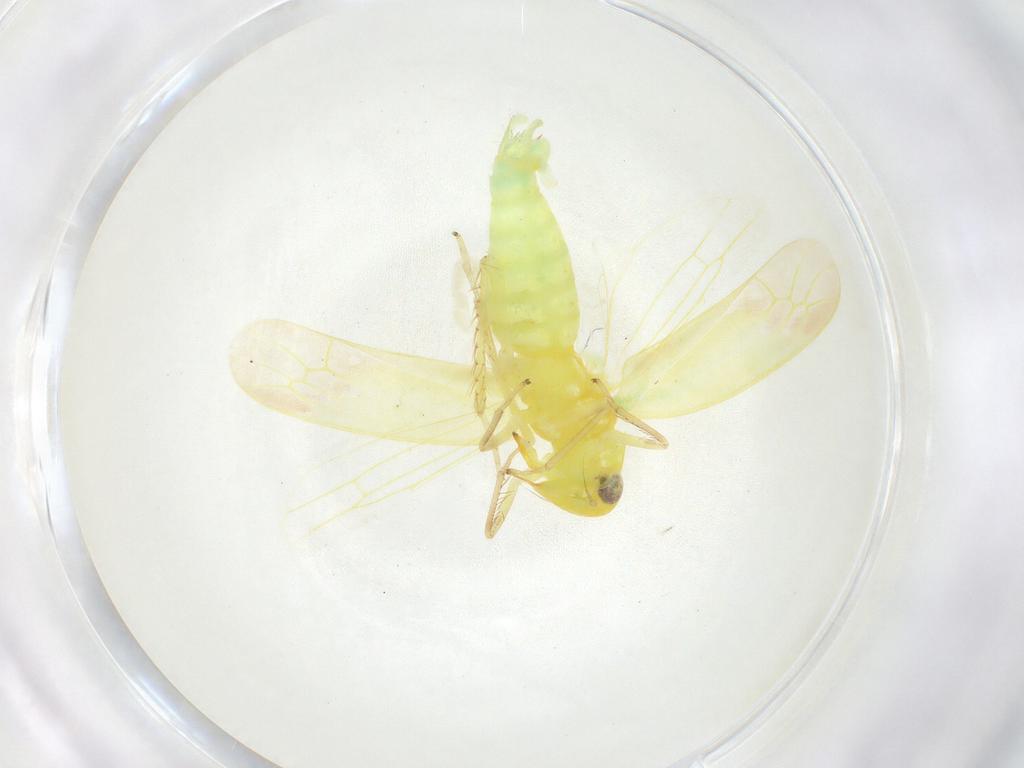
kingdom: Animalia
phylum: Arthropoda
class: Insecta
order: Hemiptera
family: Cicadellidae
